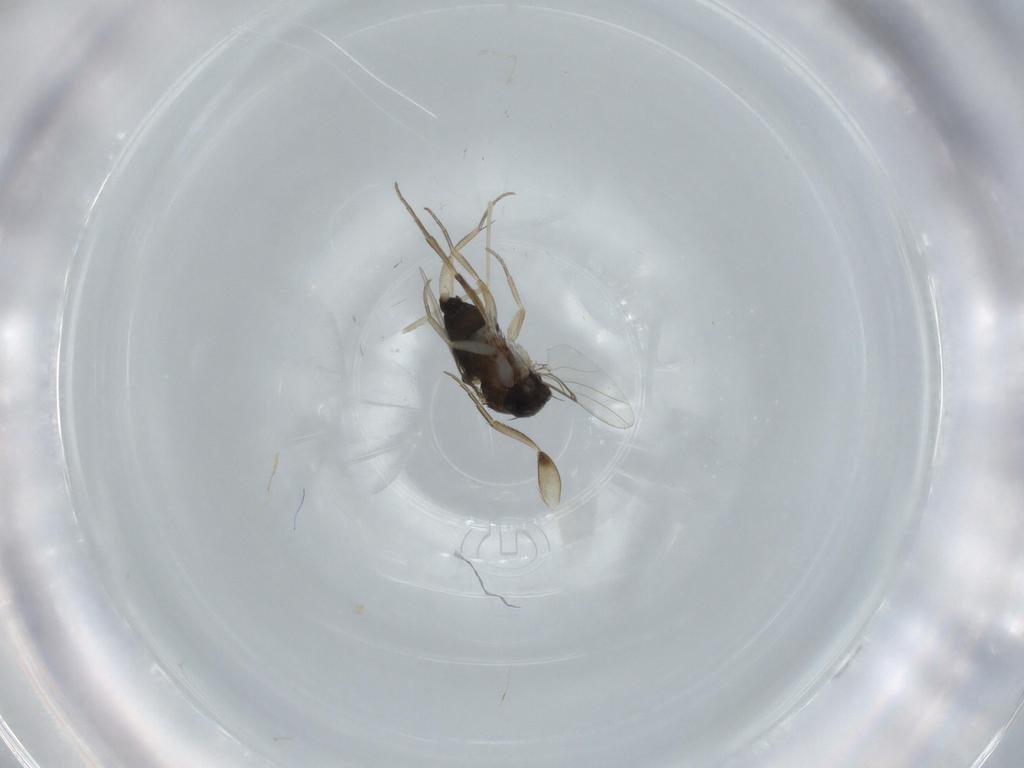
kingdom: Animalia
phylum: Arthropoda
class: Insecta
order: Diptera
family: Phoridae
